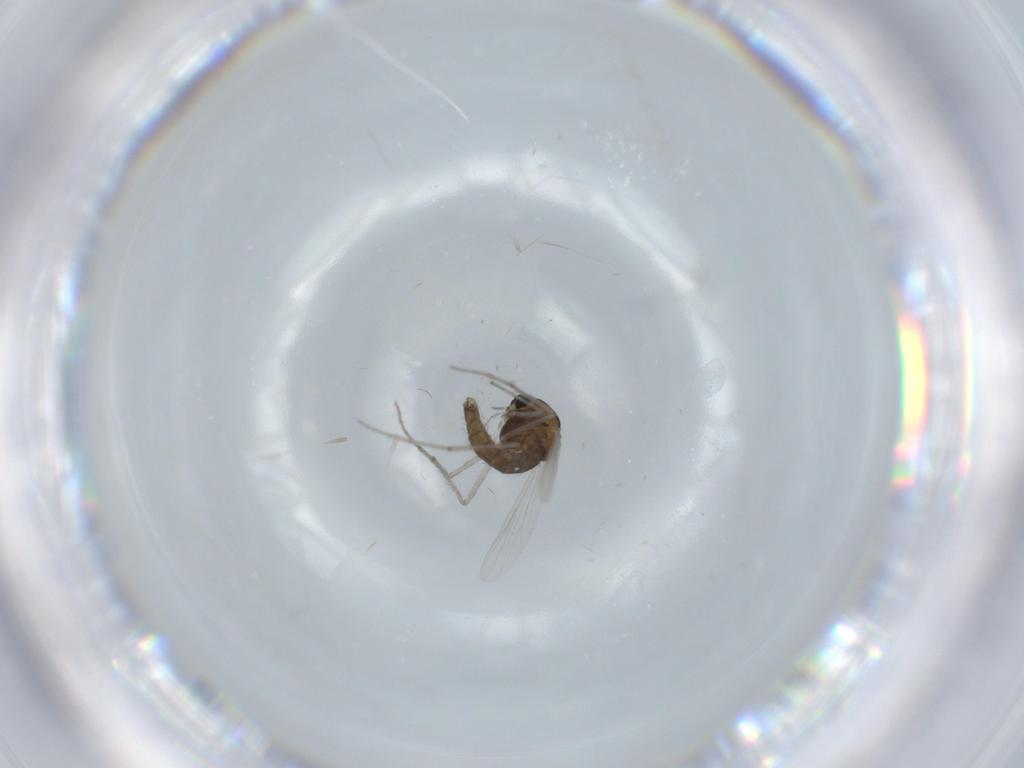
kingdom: Animalia
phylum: Arthropoda
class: Insecta
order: Diptera
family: Chironomidae
